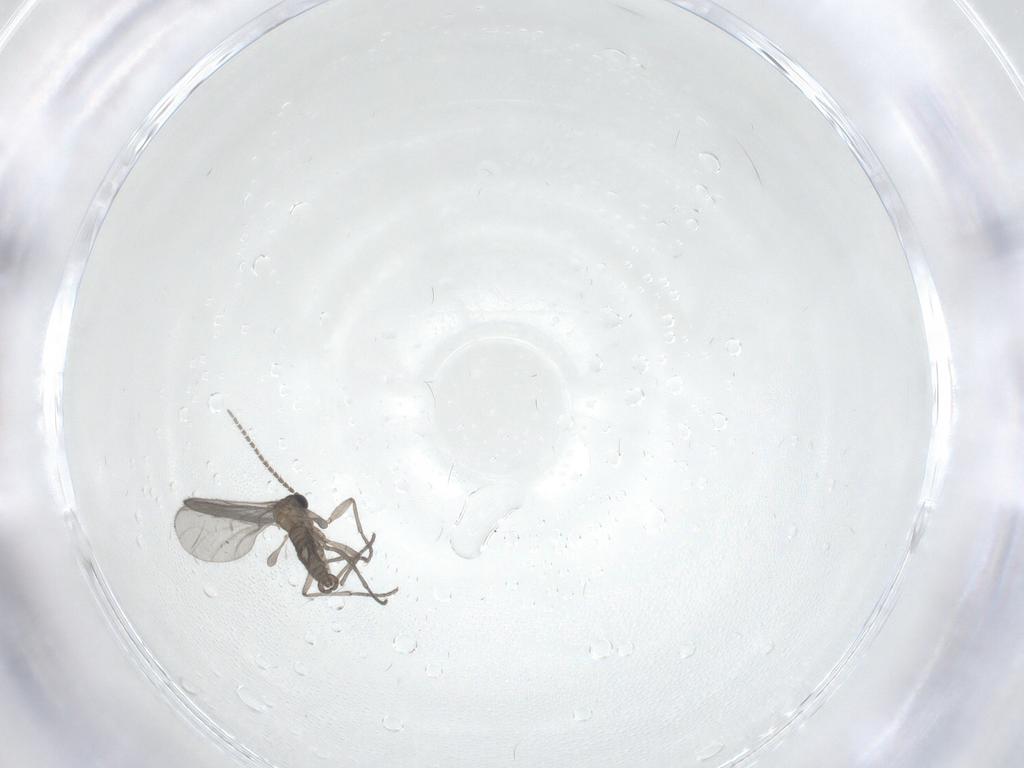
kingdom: Animalia
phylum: Arthropoda
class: Insecta
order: Diptera
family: Sciaridae
